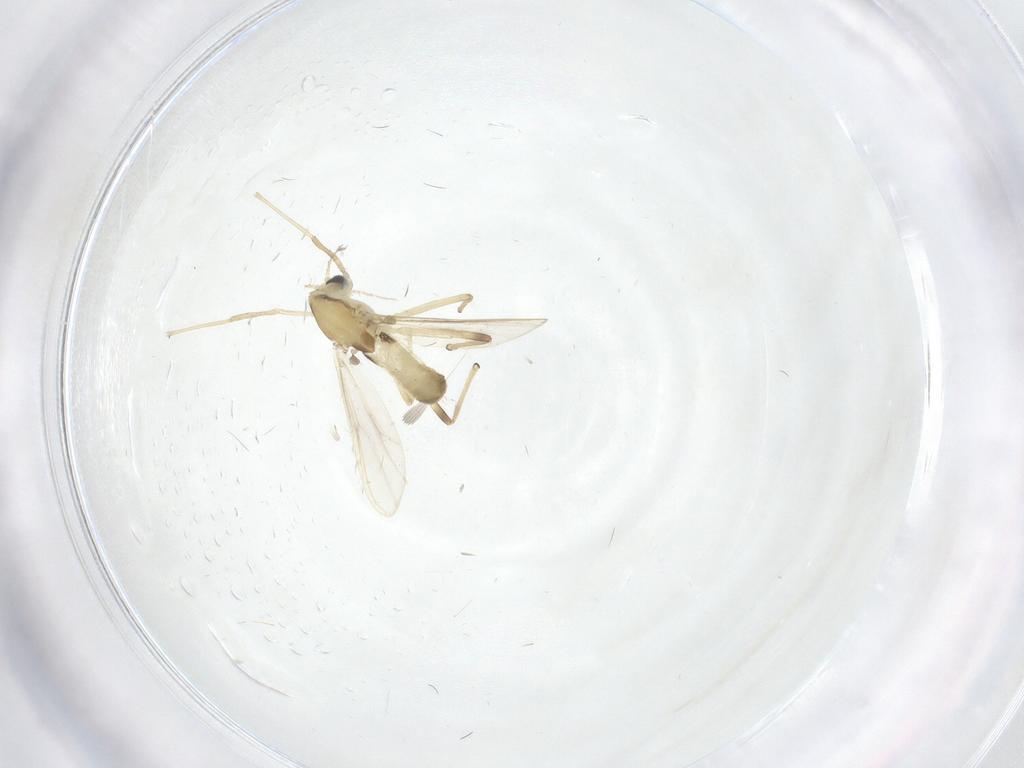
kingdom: Animalia
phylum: Arthropoda
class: Insecta
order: Diptera
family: Chironomidae
